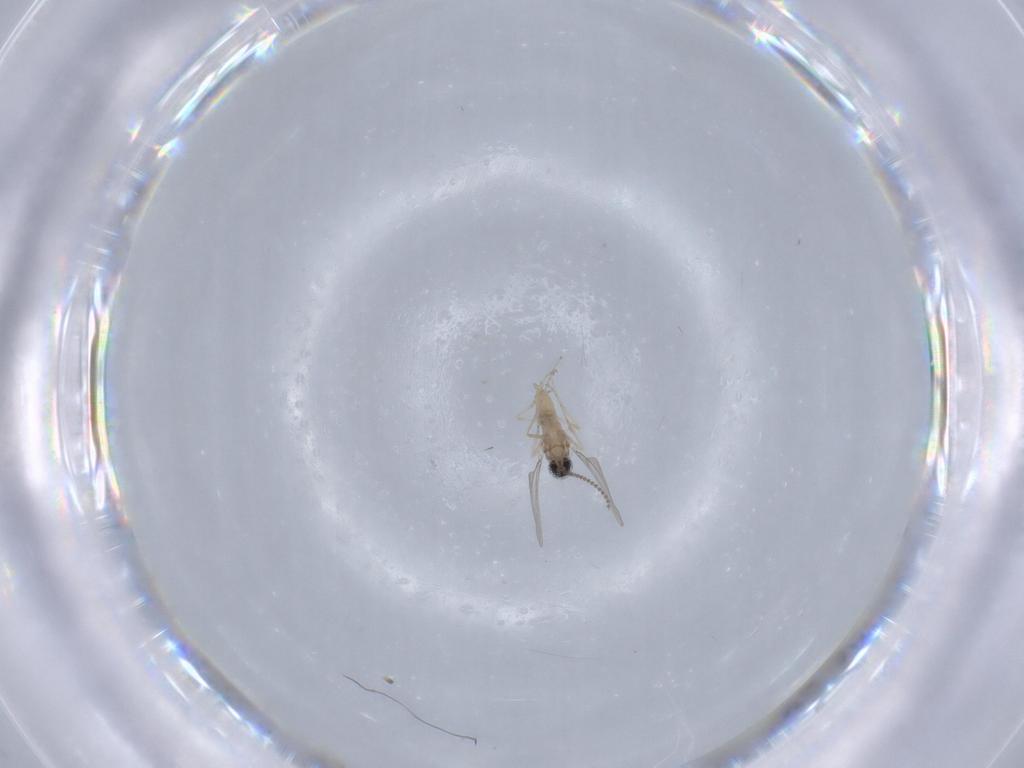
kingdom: Animalia
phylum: Arthropoda
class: Insecta
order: Diptera
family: Cecidomyiidae
